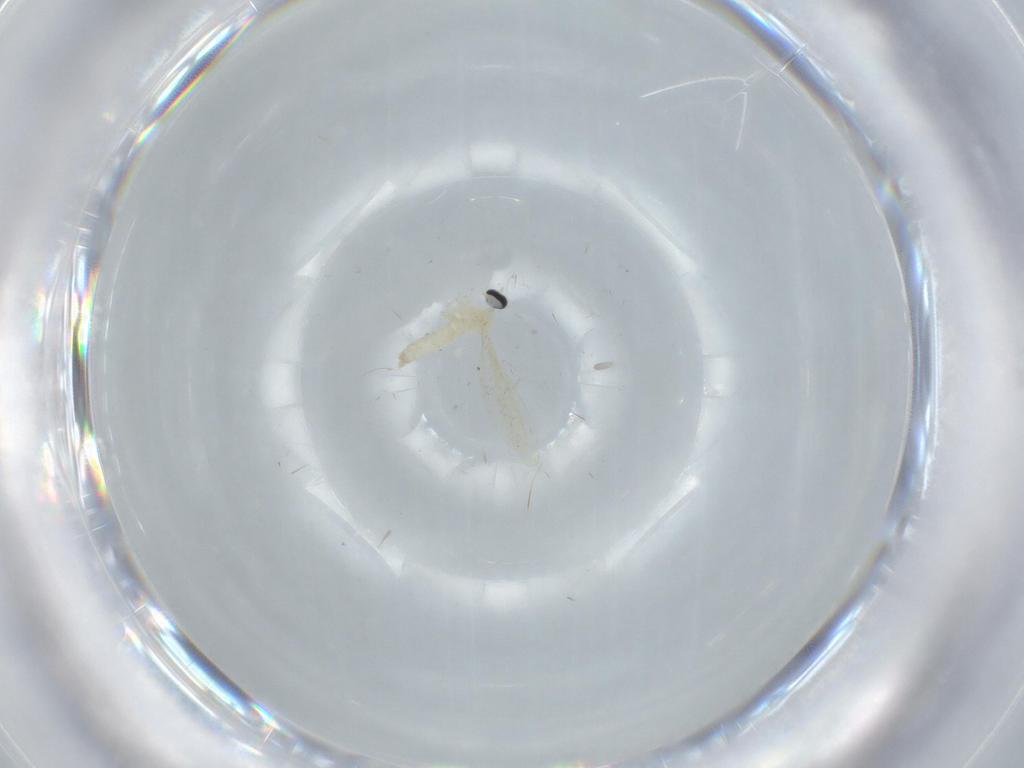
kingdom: Animalia
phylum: Arthropoda
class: Insecta
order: Diptera
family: Cecidomyiidae
